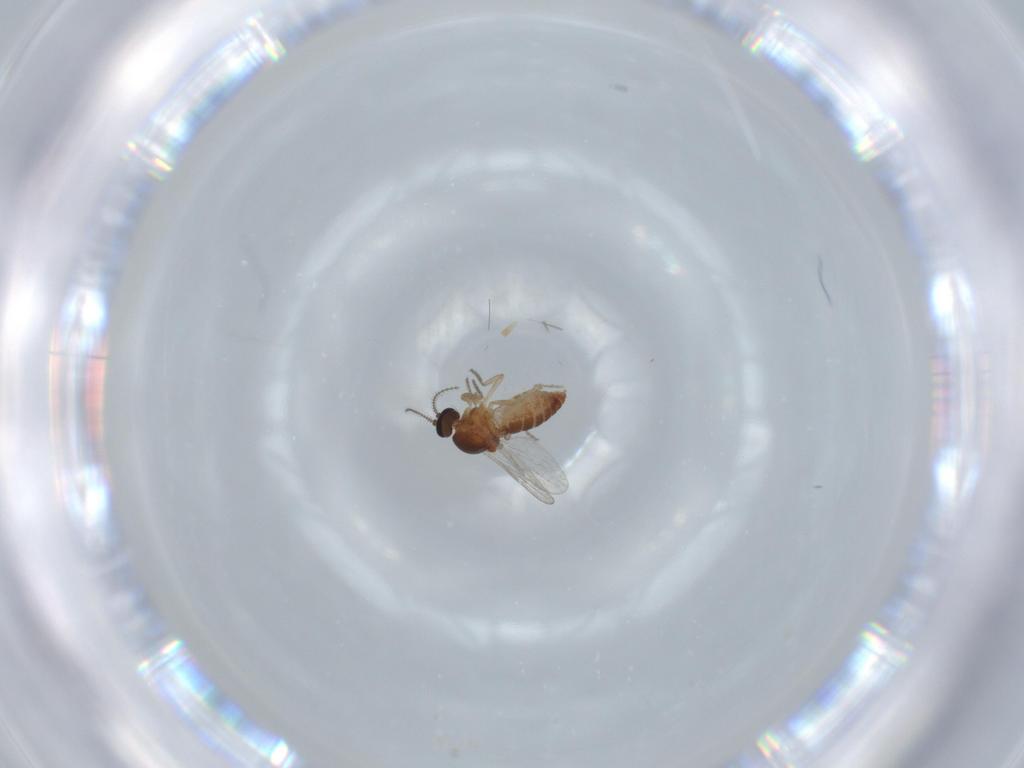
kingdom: Animalia
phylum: Arthropoda
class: Insecta
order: Diptera
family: Ceratopogonidae
